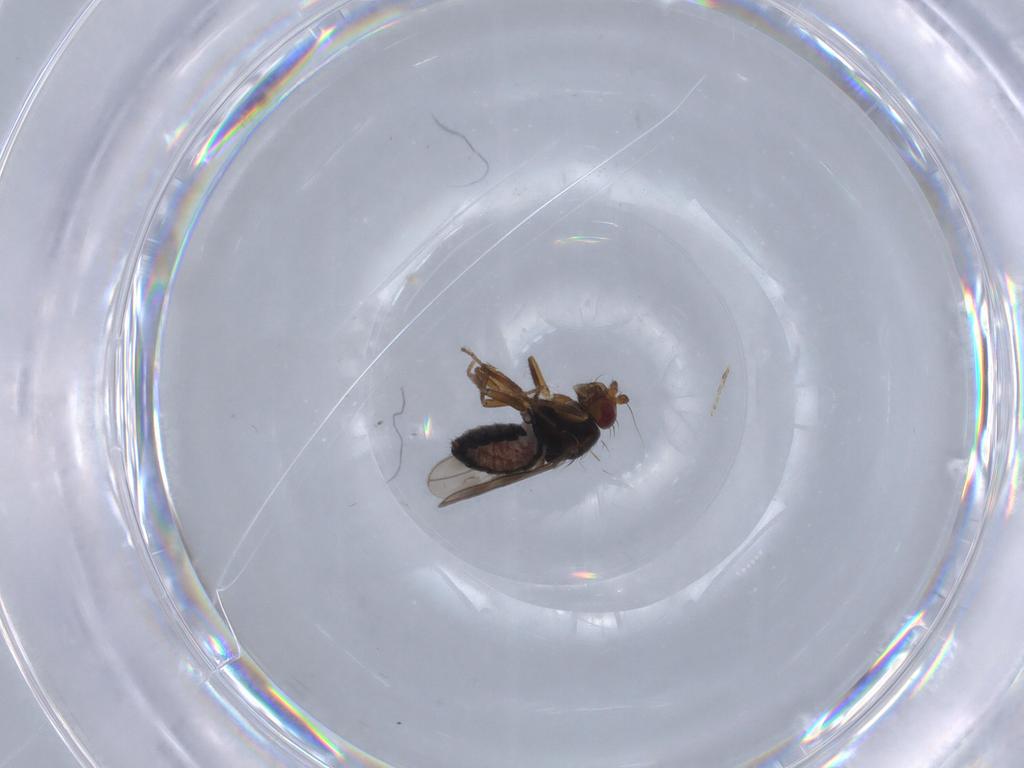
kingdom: Animalia
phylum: Arthropoda
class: Insecta
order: Diptera
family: Sphaeroceridae
